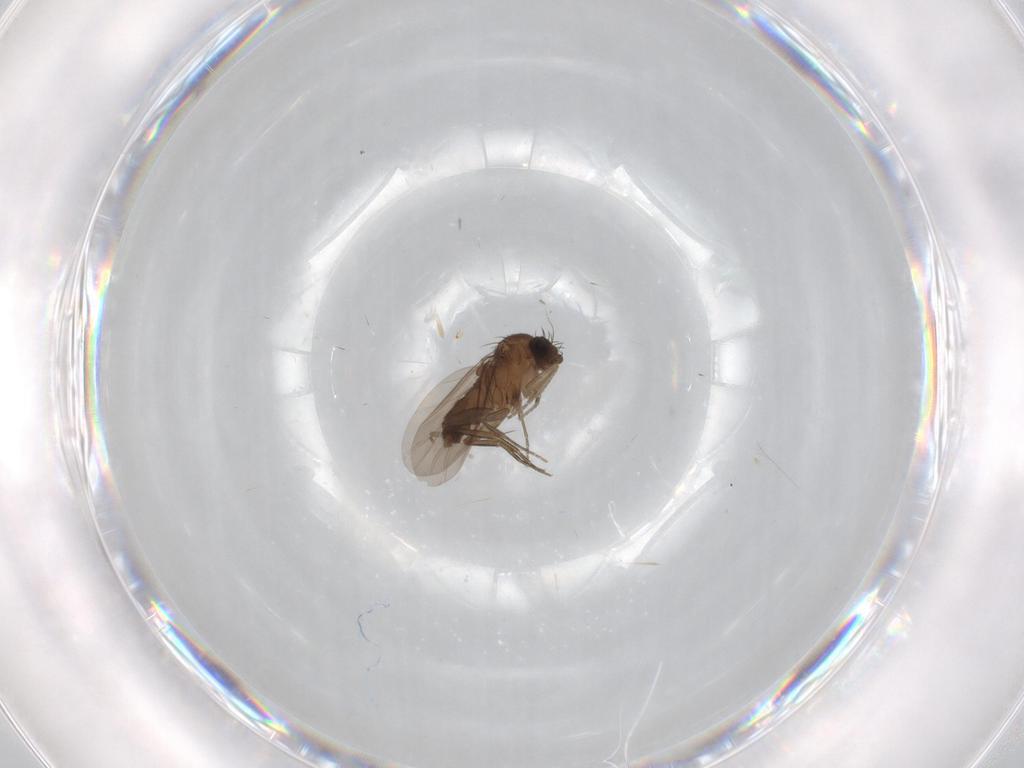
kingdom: Animalia
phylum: Arthropoda
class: Insecta
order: Diptera
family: Phoridae
